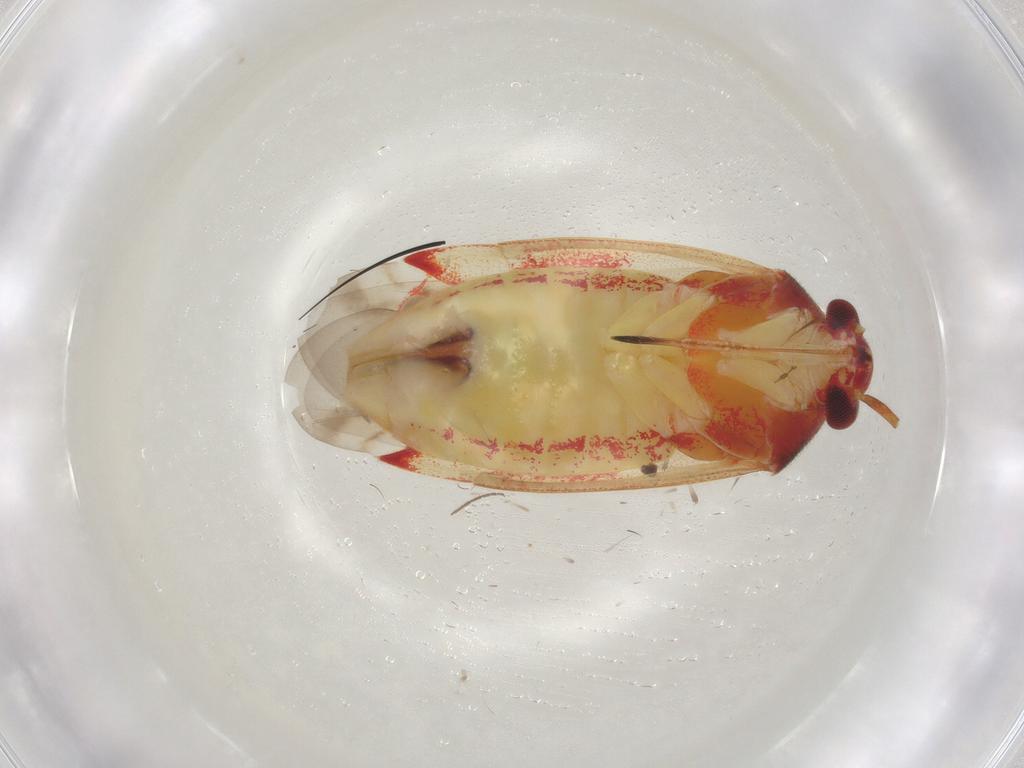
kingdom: Animalia
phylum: Arthropoda
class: Insecta
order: Hemiptera
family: Miridae
